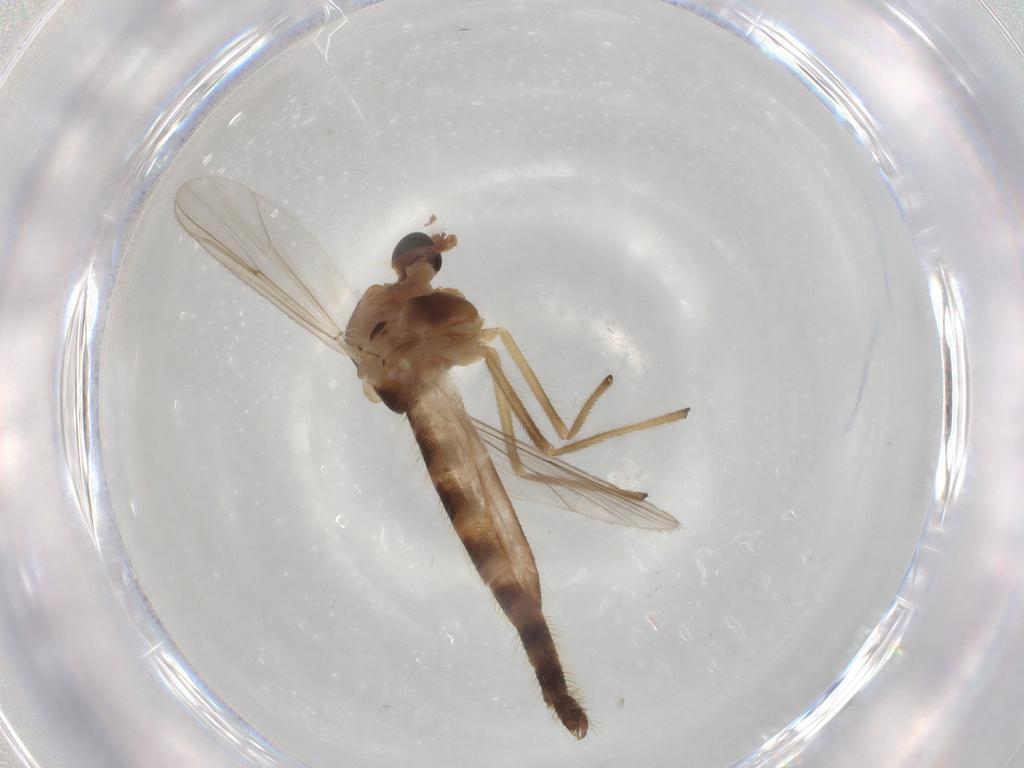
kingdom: Animalia
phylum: Arthropoda
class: Insecta
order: Diptera
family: Chironomidae
